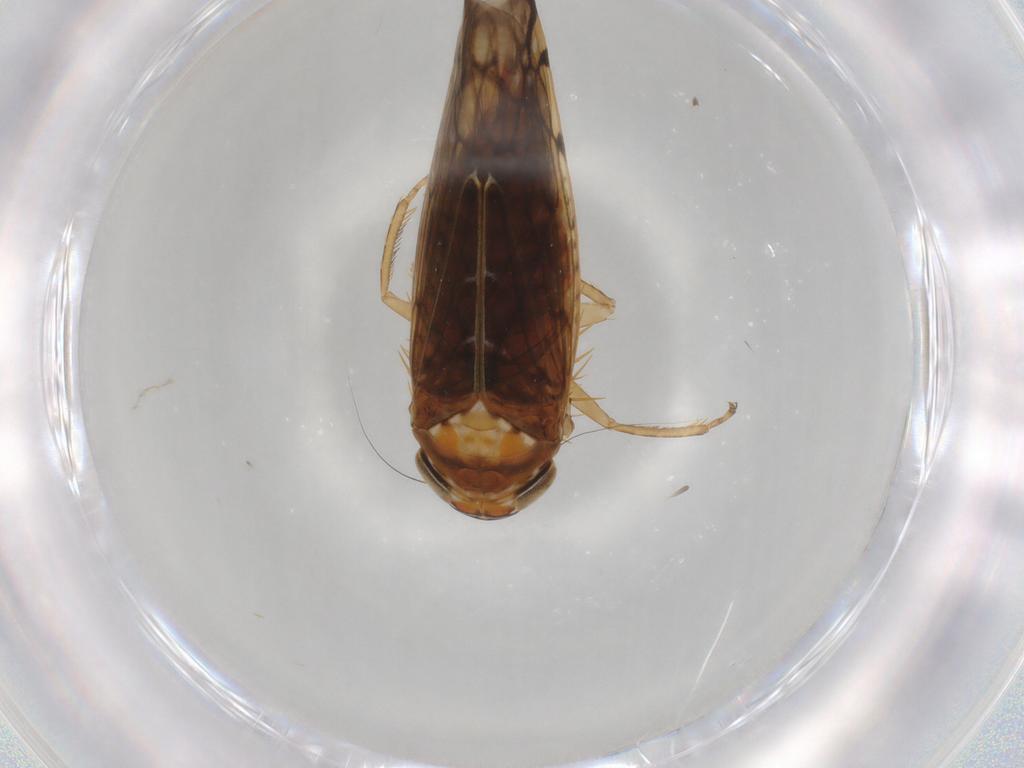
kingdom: Animalia
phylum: Arthropoda
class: Insecta
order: Hemiptera
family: Cicadellidae
